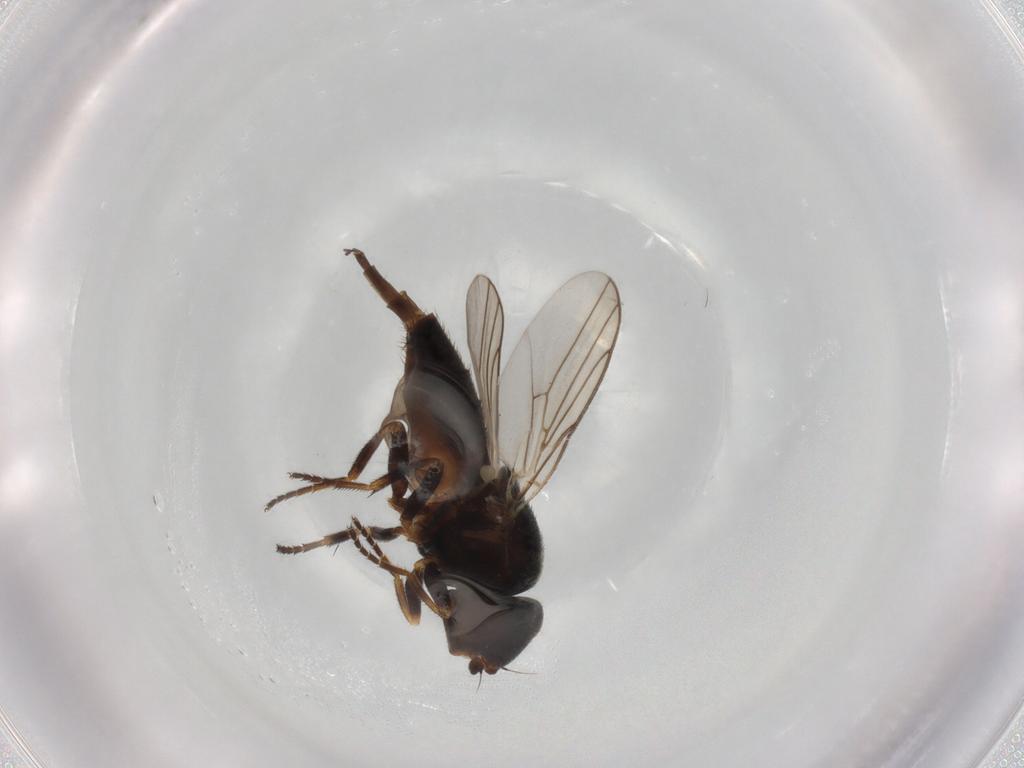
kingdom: Animalia
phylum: Arthropoda
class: Insecta
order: Diptera
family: Chloropidae
